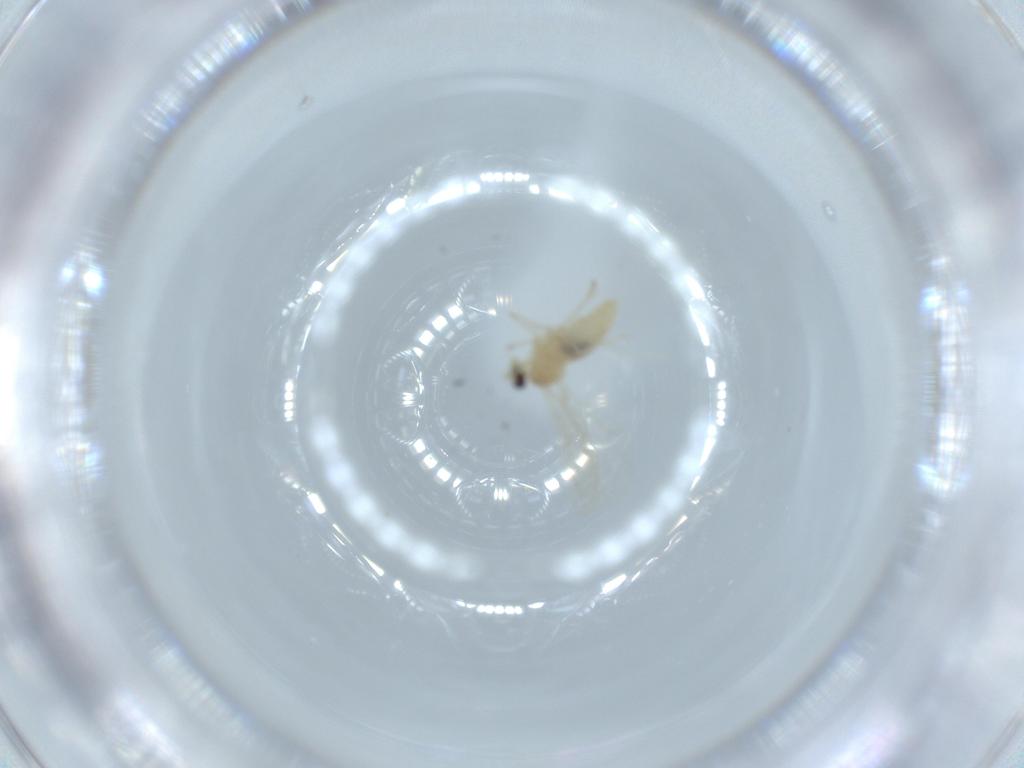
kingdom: Animalia
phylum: Arthropoda
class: Insecta
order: Diptera
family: Cecidomyiidae
